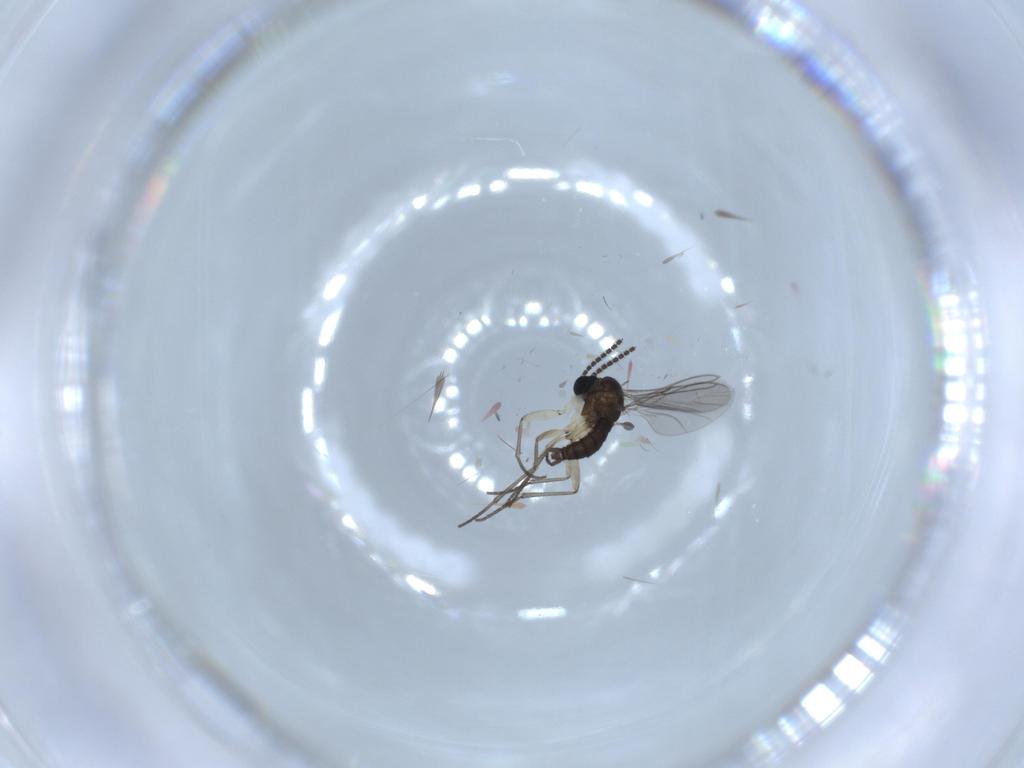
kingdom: Animalia
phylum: Arthropoda
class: Insecta
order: Diptera
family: Sciaridae
